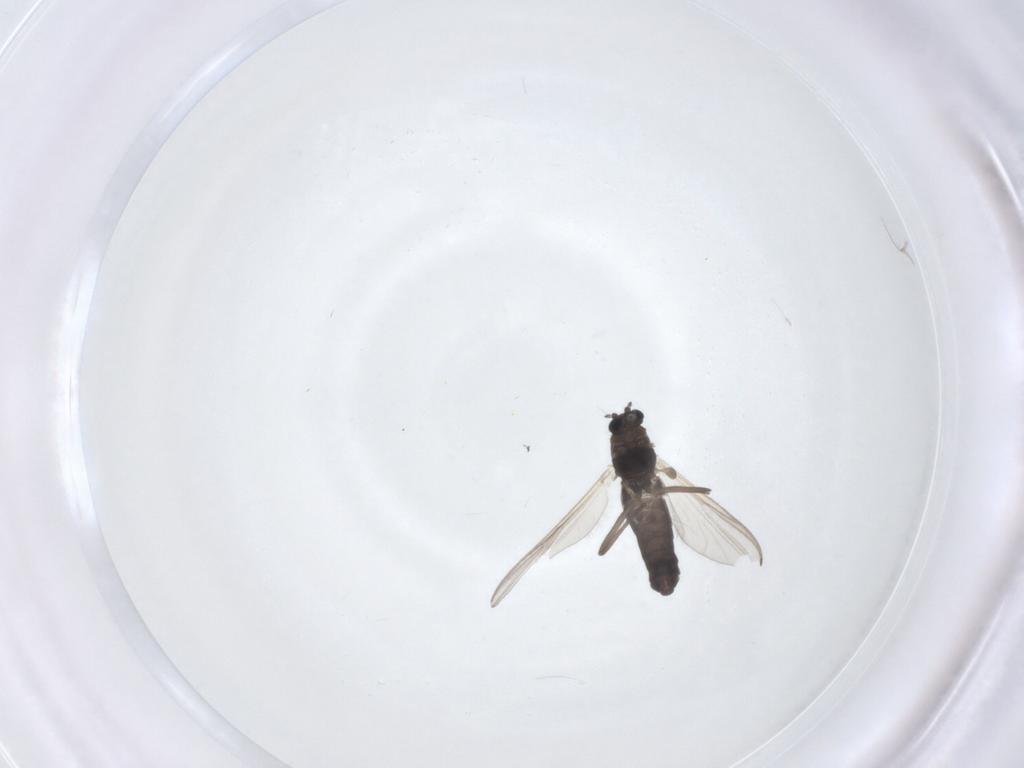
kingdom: Animalia
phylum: Arthropoda
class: Insecta
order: Diptera
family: Chironomidae
